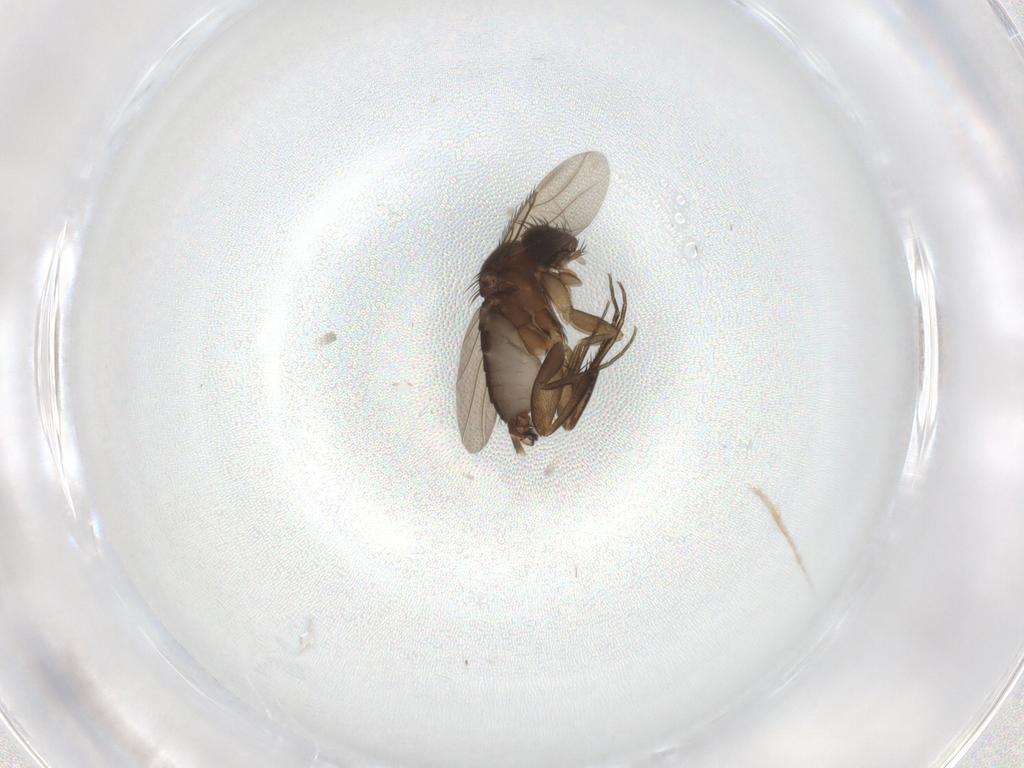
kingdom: Animalia
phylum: Arthropoda
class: Insecta
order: Diptera
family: Phoridae
